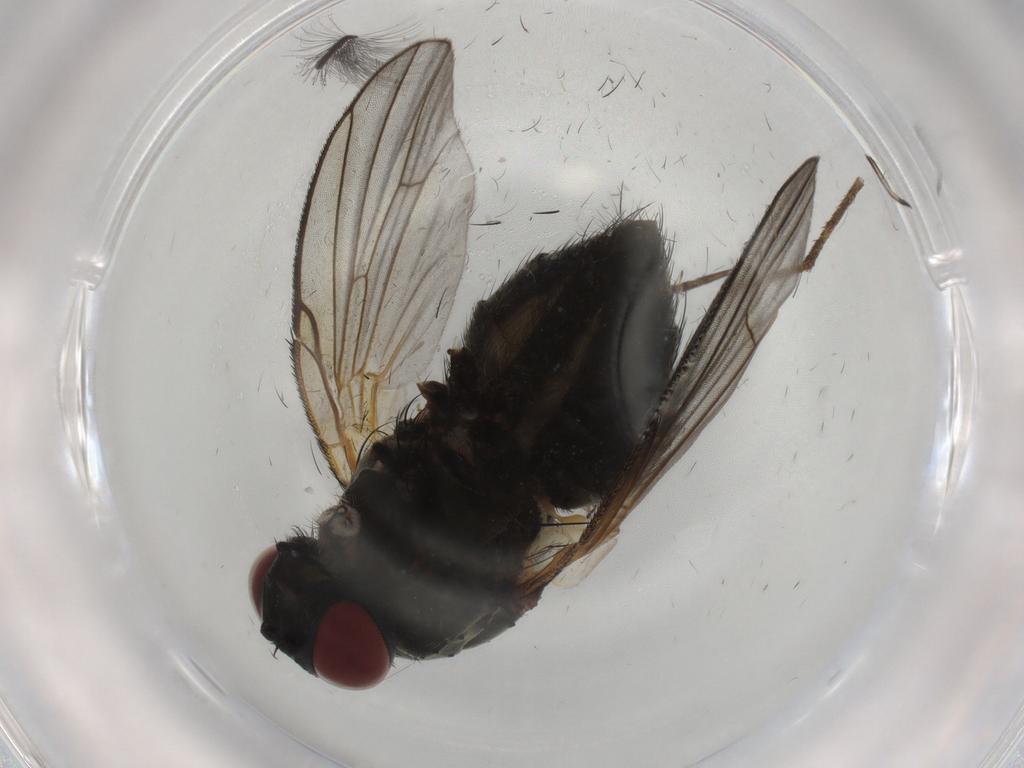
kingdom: Animalia
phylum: Arthropoda
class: Insecta
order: Diptera
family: Muscidae
